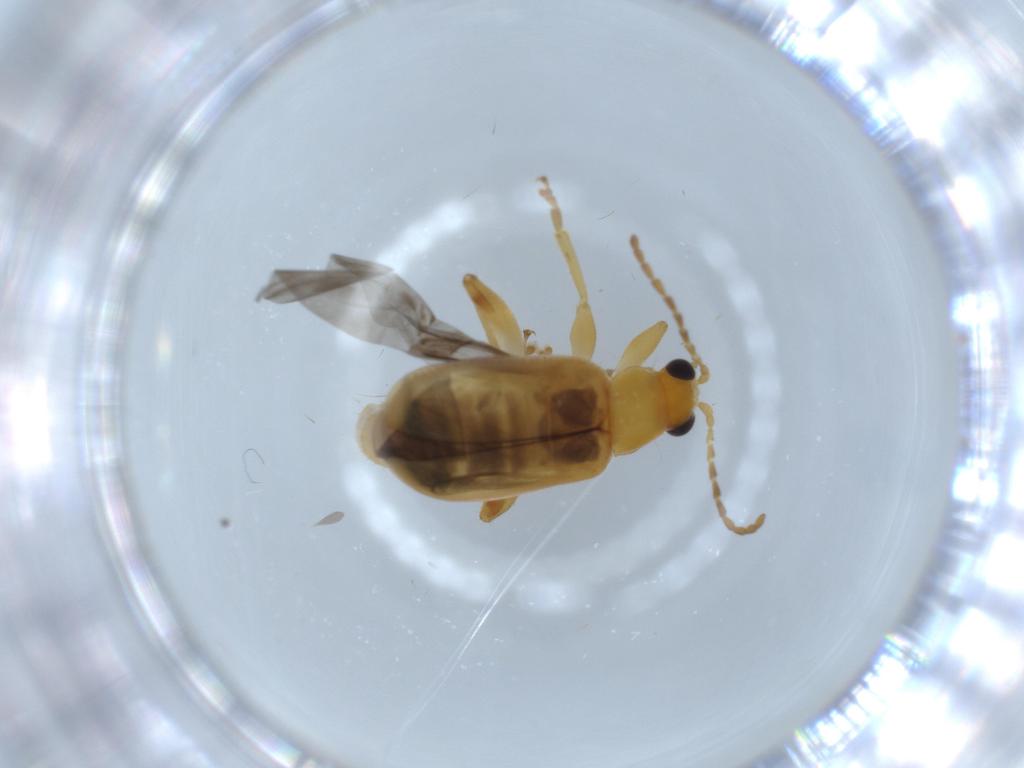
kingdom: Animalia
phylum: Arthropoda
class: Insecta
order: Coleoptera
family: Chrysomelidae
